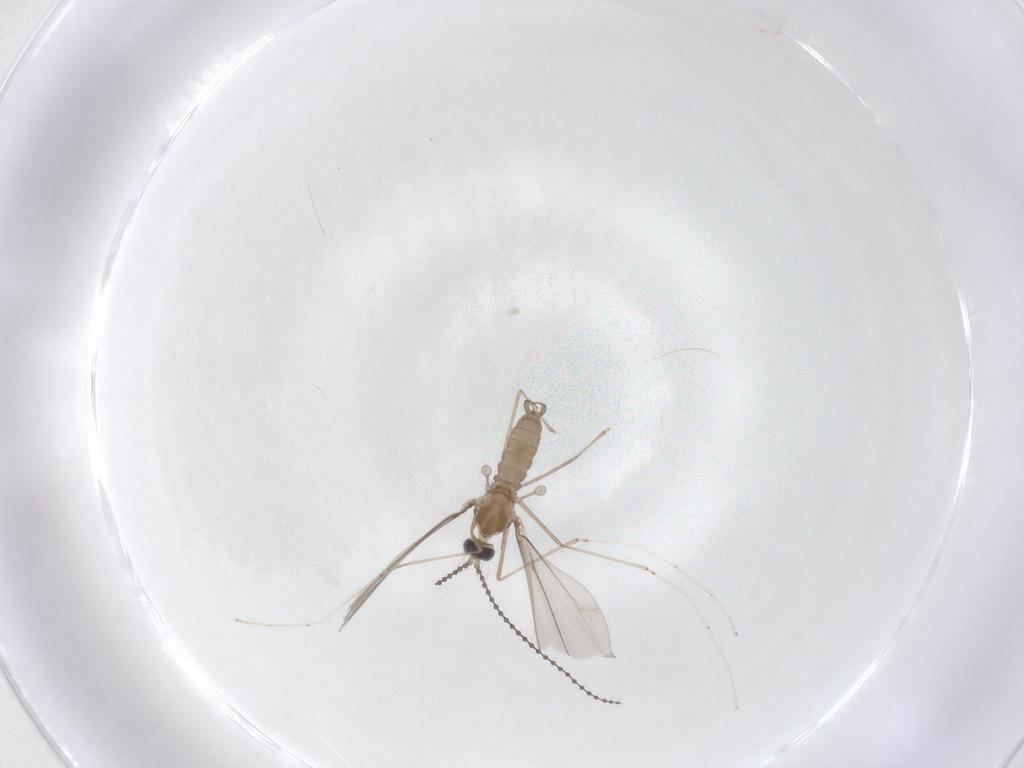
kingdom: Animalia
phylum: Arthropoda
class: Insecta
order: Diptera
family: Cecidomyiidae
